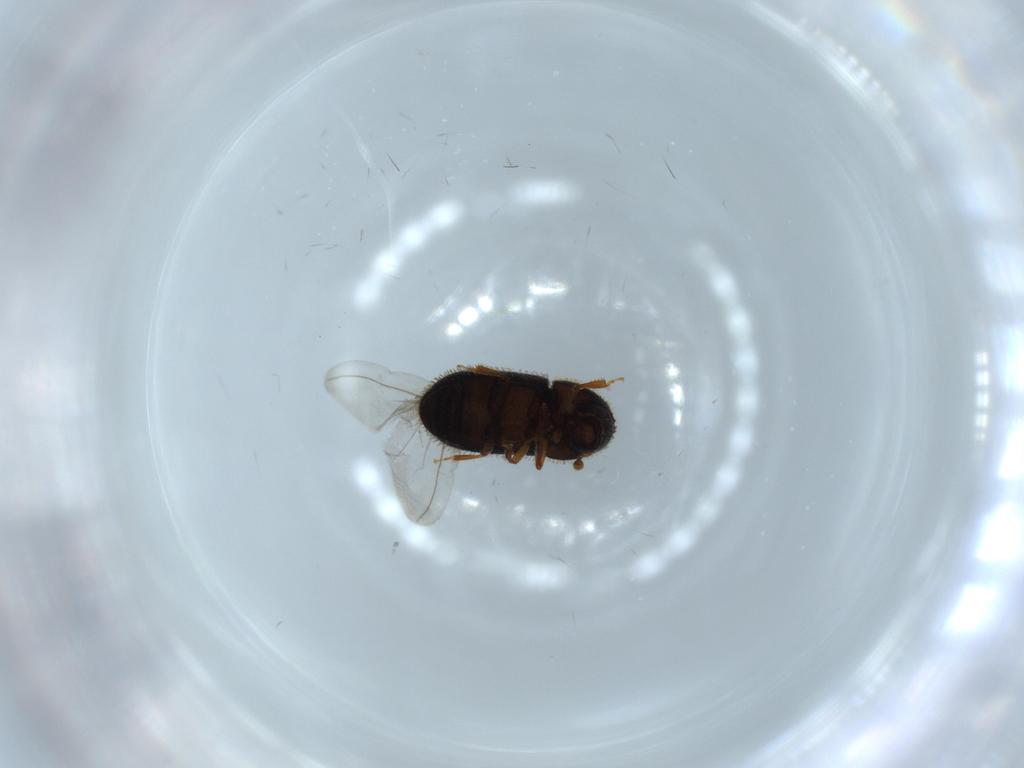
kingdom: Animalia
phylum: Arthropoda
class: Insecta
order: Coleoptera
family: Curculionidae
